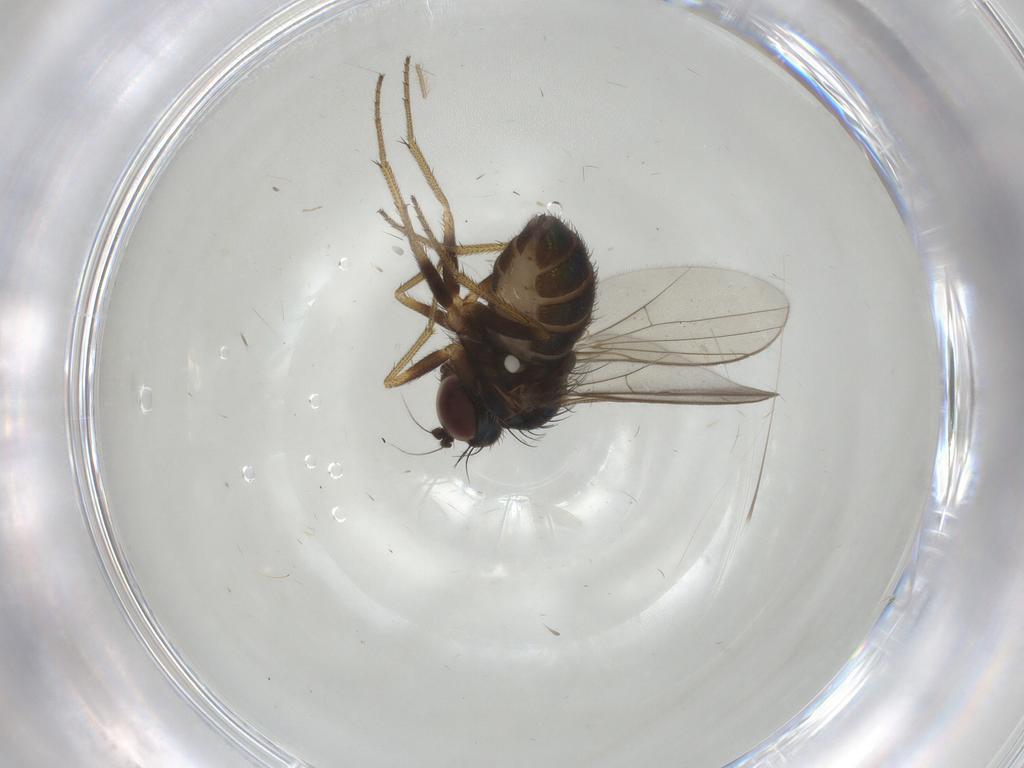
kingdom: Animalia
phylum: Arthropoda
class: Insecta
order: Diptera
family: Dolichopodidae
